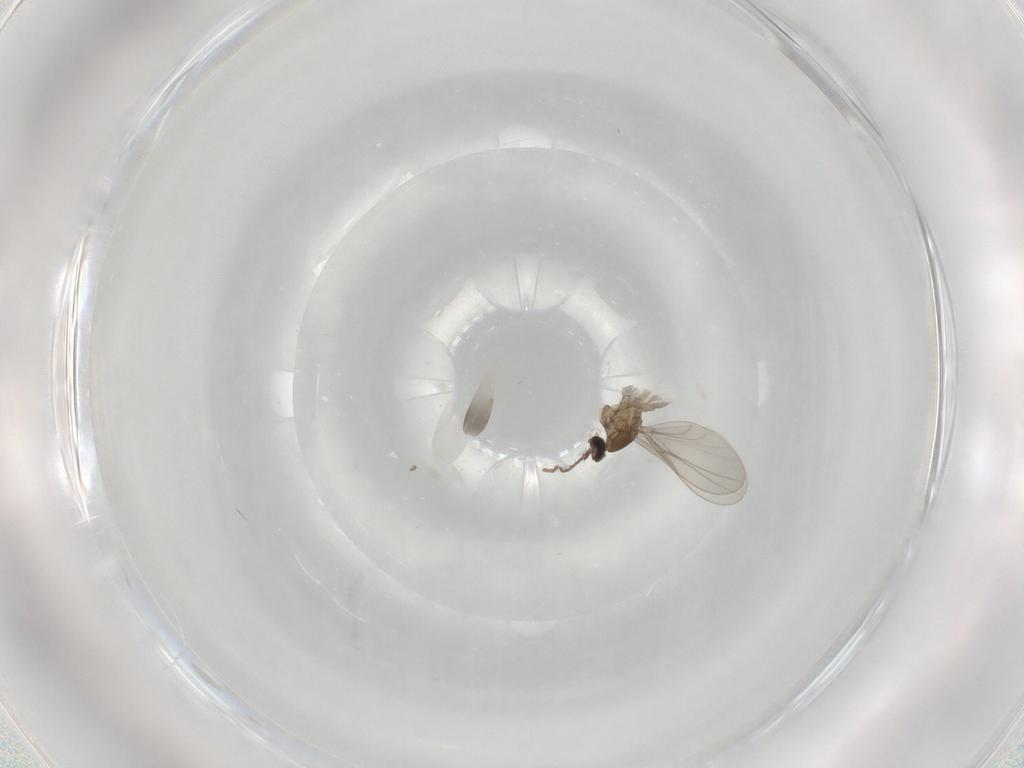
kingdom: Animalia
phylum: Arthropoda
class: Insecta
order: Diptera
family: Cecidomyiidae
